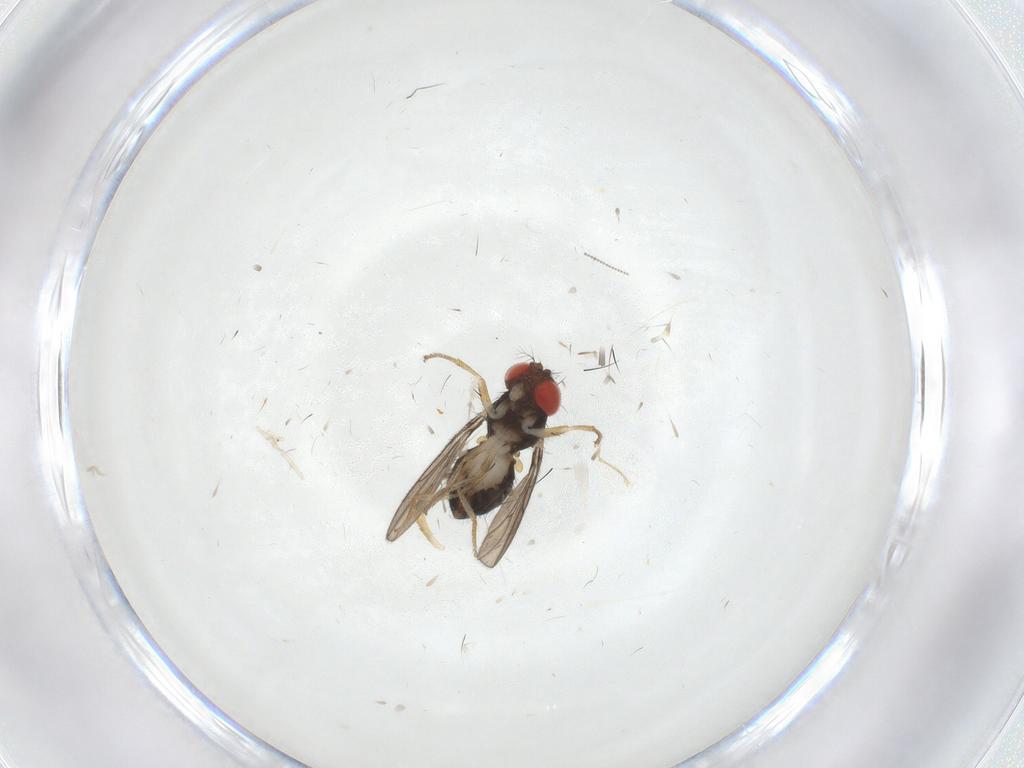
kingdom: Animalia
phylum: Arthropoda
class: Insecta
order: Diptera
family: Drosophilidae
